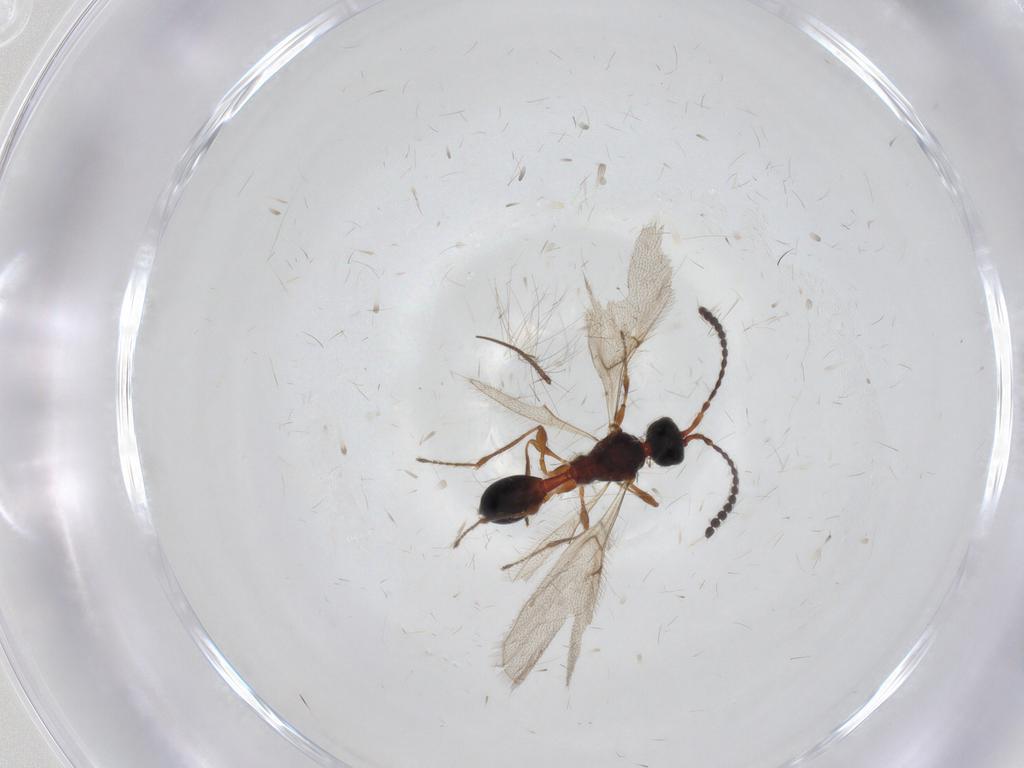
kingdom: Animalia
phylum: Arthropoda
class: Insecta
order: Hymenoptera
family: Diapriidae
